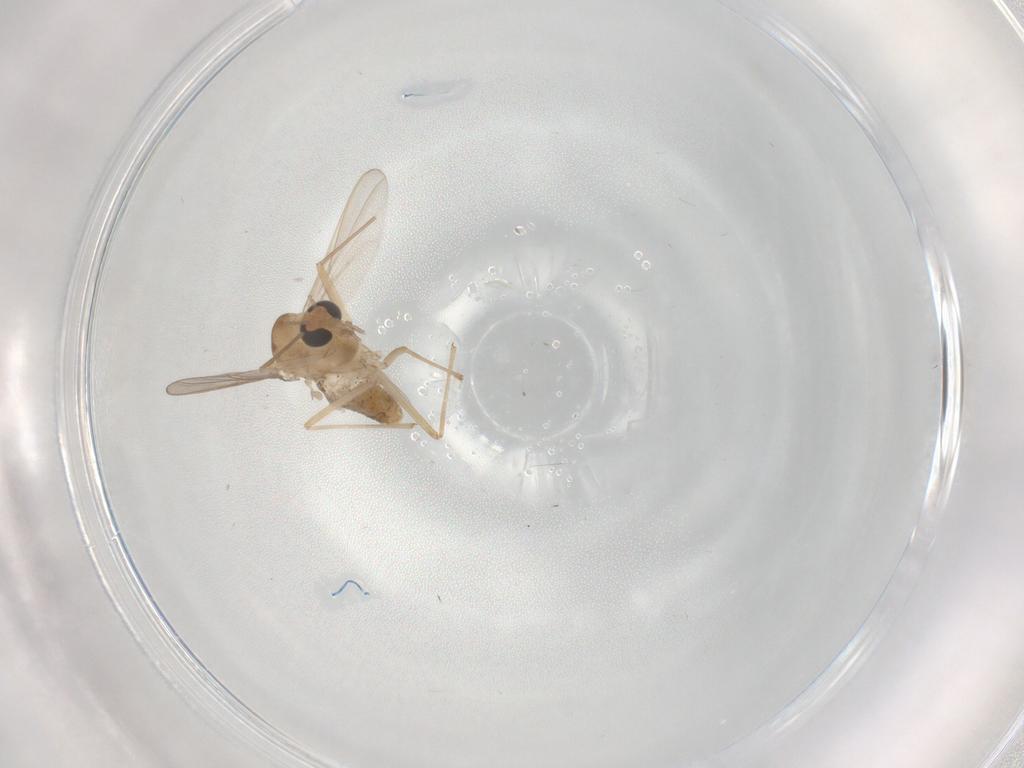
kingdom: Animalia
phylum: Arthropoda
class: Insecta
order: Diptera
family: Chironomidae
